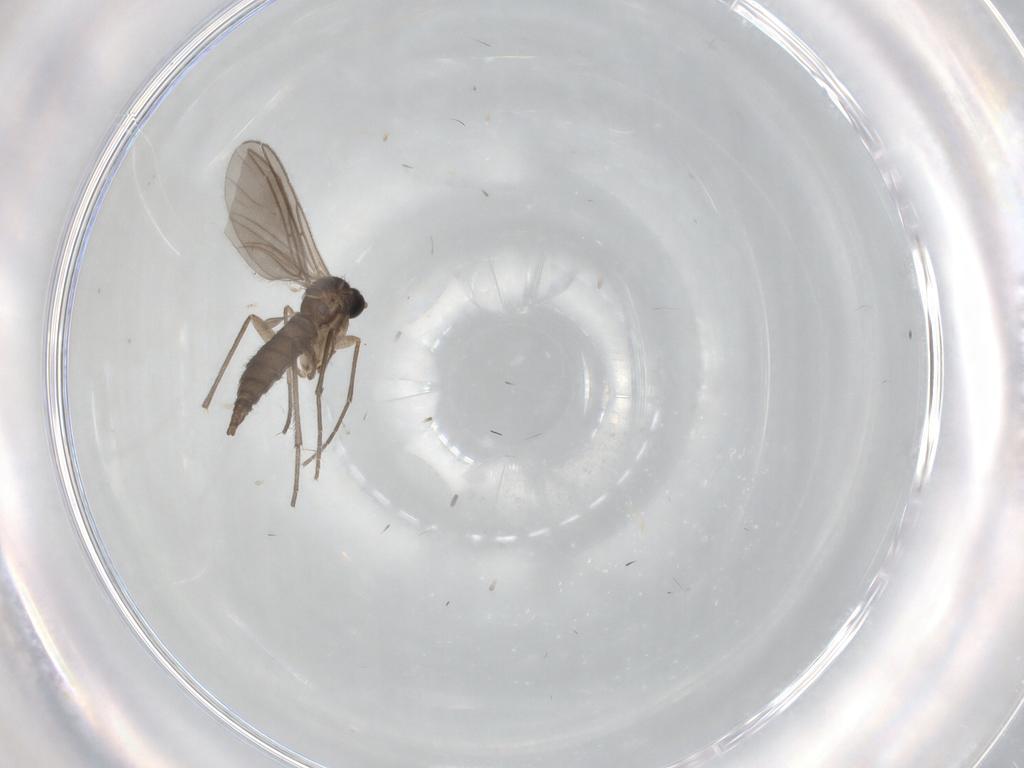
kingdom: Animalia
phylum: Arthropoda
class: Insecta
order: Diptera
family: Sciaridae
